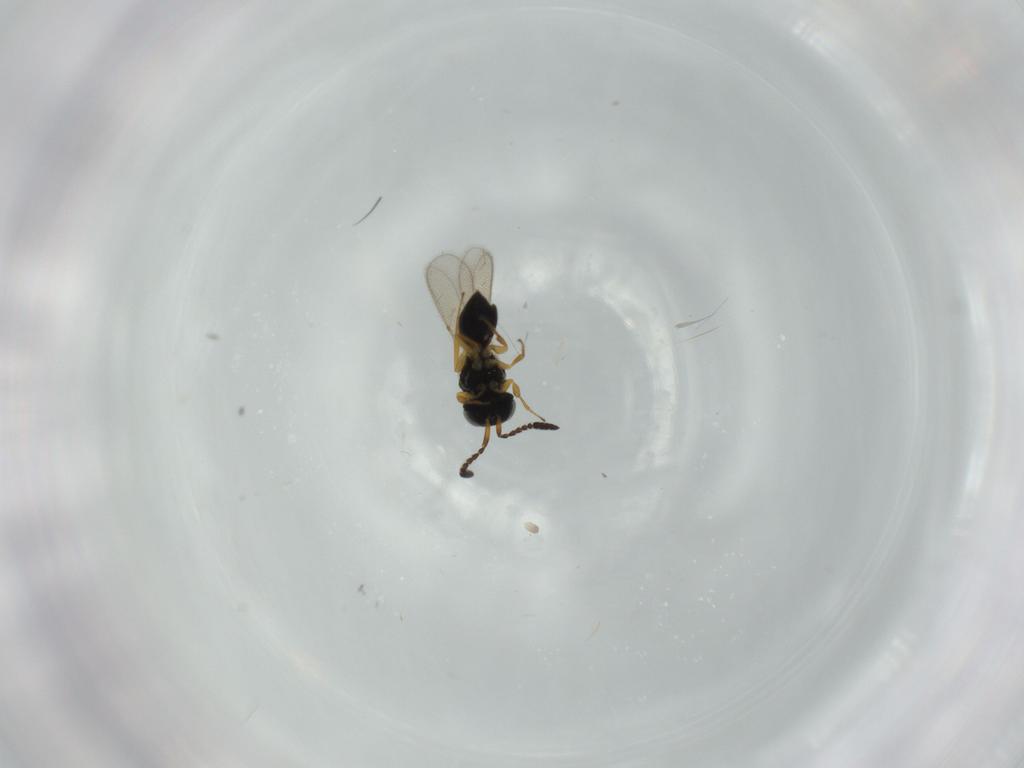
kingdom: Animalia
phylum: Arthropoda
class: Insecta
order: Hymenoptera
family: Scelionidae
